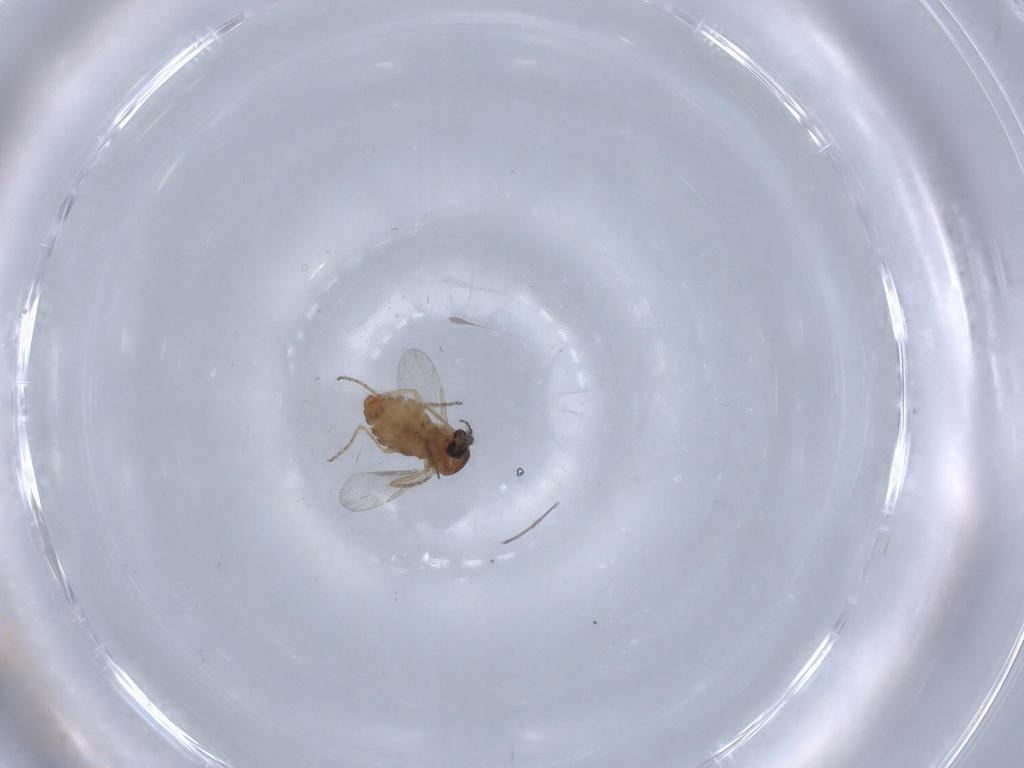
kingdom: Animalia
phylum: Arthropoda
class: Insecta
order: Diptera
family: Ceratopogonidae
